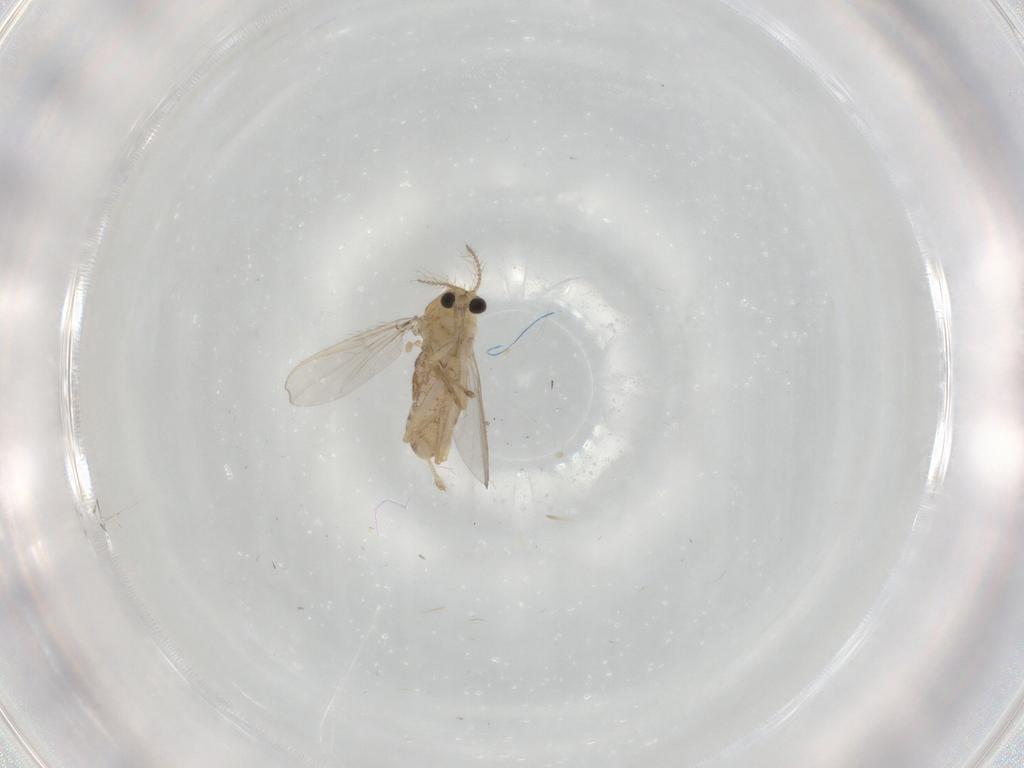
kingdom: Animalia
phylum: Arthropoda
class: Insecta
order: Diptera
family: Chironomidae
